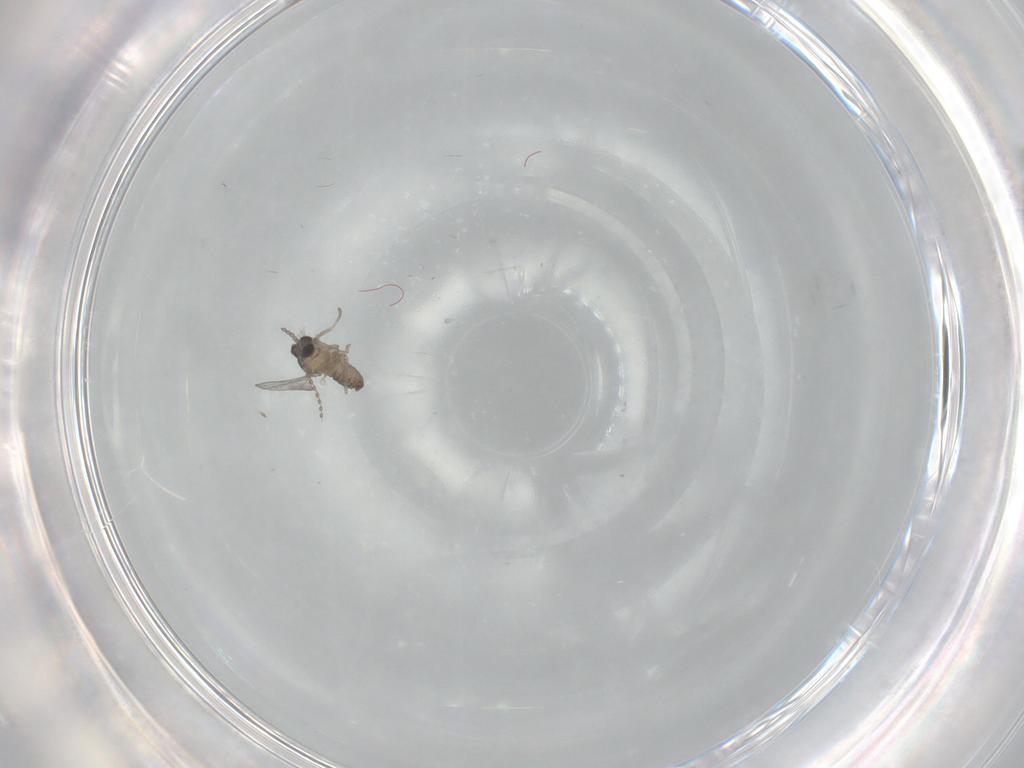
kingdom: Animalia
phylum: Arthropoda
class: Insecta
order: Diptera
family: Cecidomyiidae
